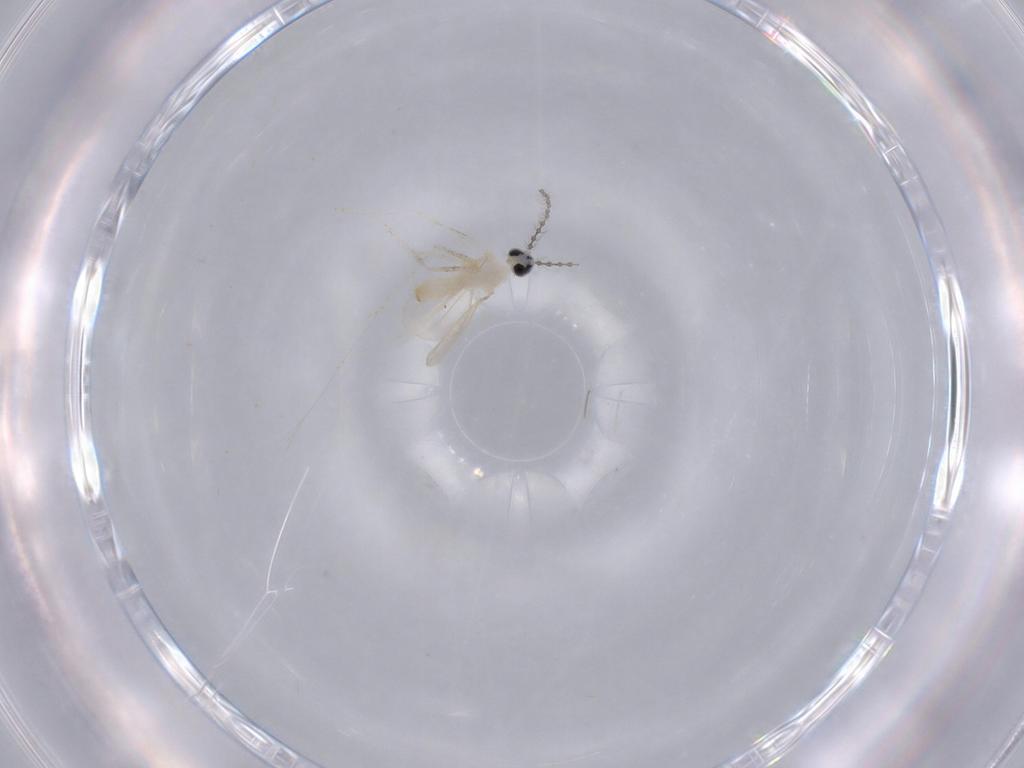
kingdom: Animalia
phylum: Arthropoda
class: Insecta
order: Diptera
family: Cecidomyiidae
